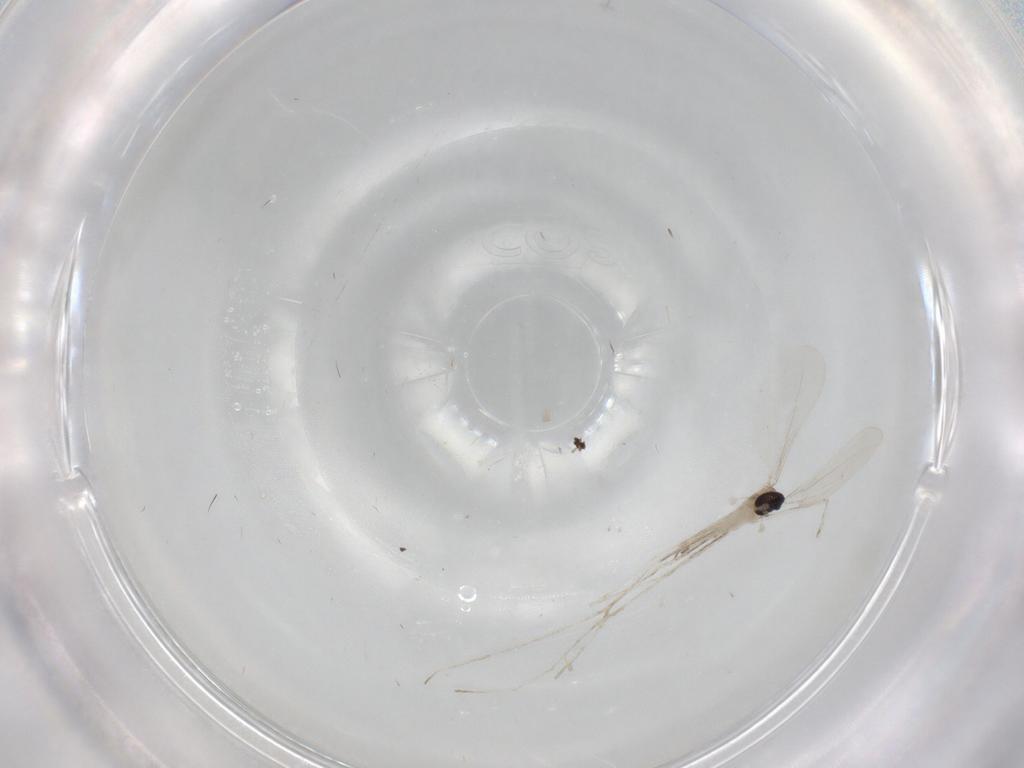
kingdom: Animalia
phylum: Arthropoda
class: Insecta
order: Diptera
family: Cecidomyiidae
